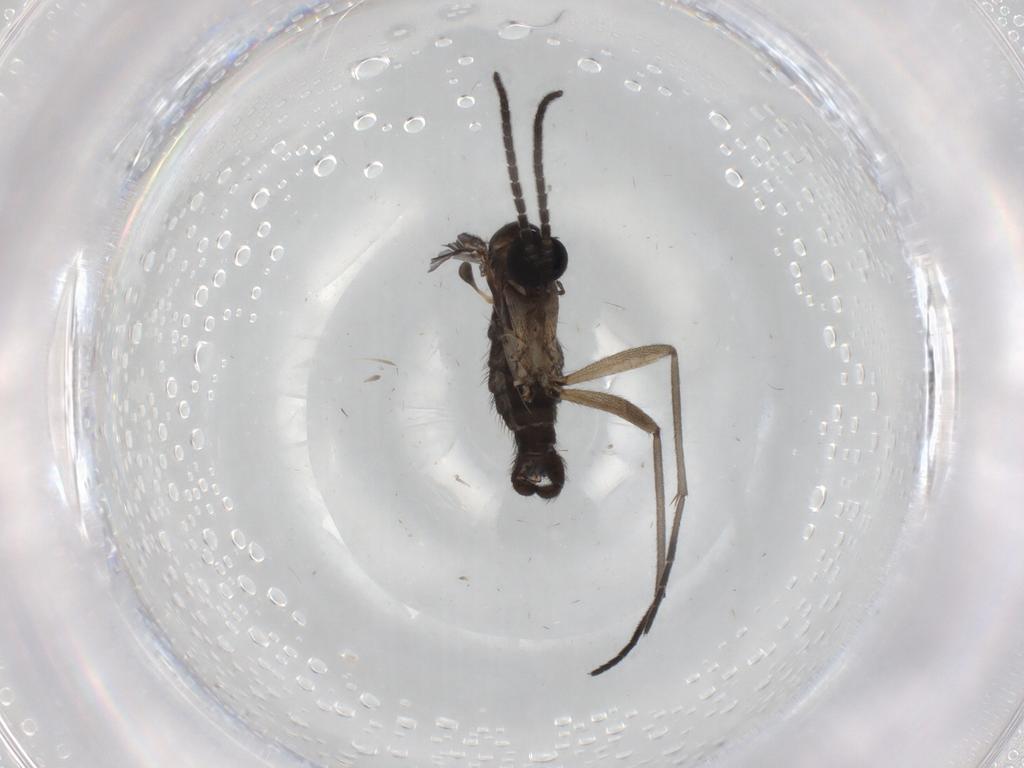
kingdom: Animalia
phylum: Arthropoda
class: Insecta
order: Diptera
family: Sciaridae
